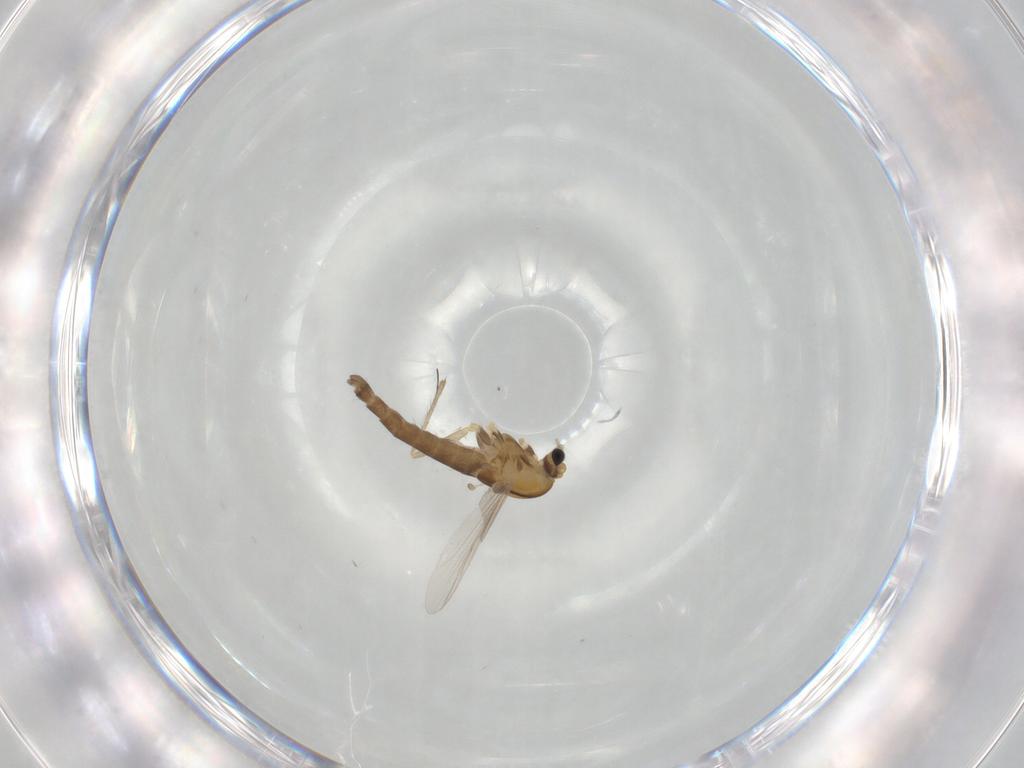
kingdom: Animalia
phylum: Arthropoda
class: Insecta
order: Diptera
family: Chironomidae
